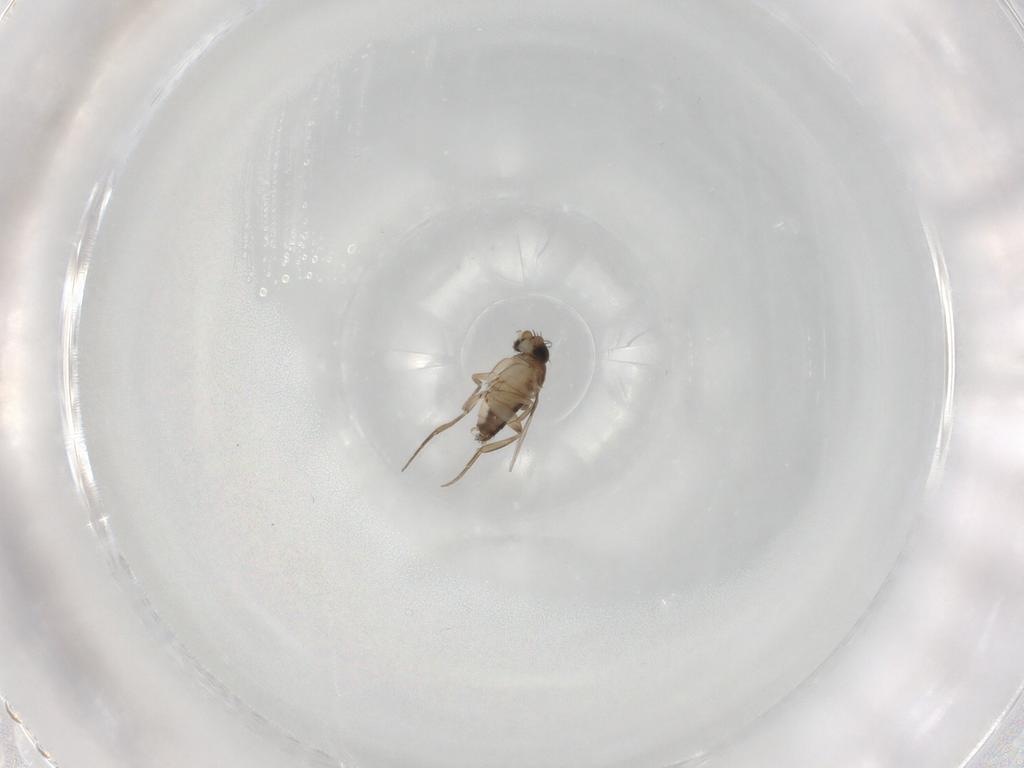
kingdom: Animalia
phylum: Arthropoda
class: Insecta
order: Diptera
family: Phoridae
